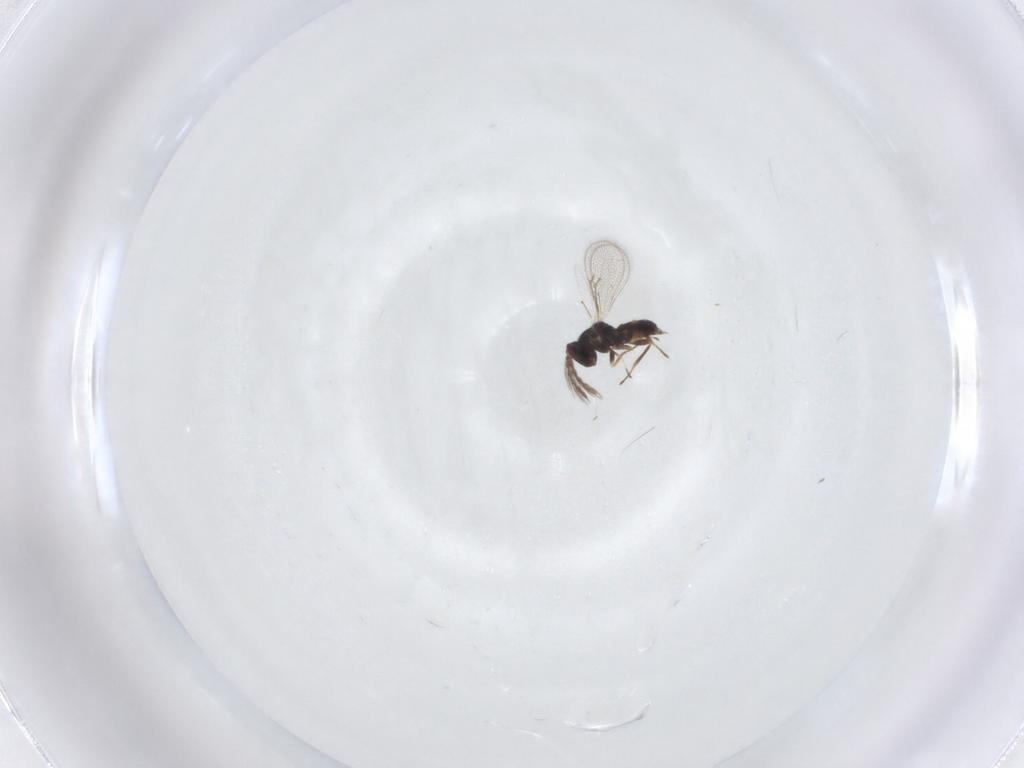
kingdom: Animalia
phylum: Arthropoda
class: Insecta
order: Hymenoptera
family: Eulophidae
